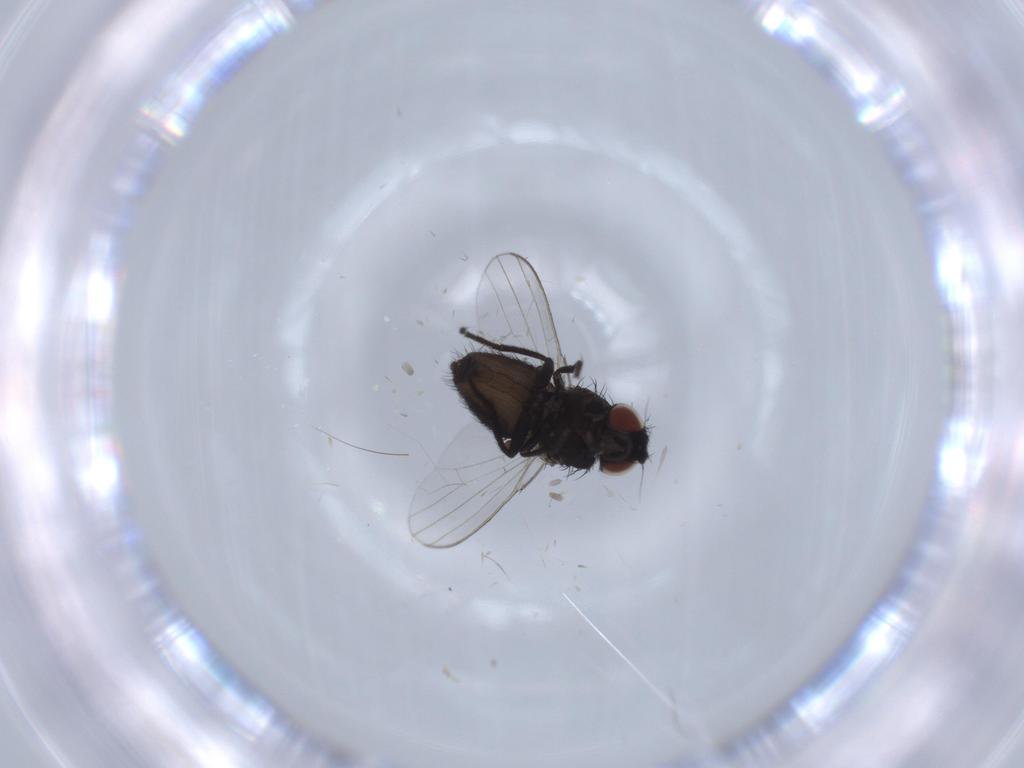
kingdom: Animalia
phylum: Arthropoda
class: Insecta
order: Diptera
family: Milichiidae
